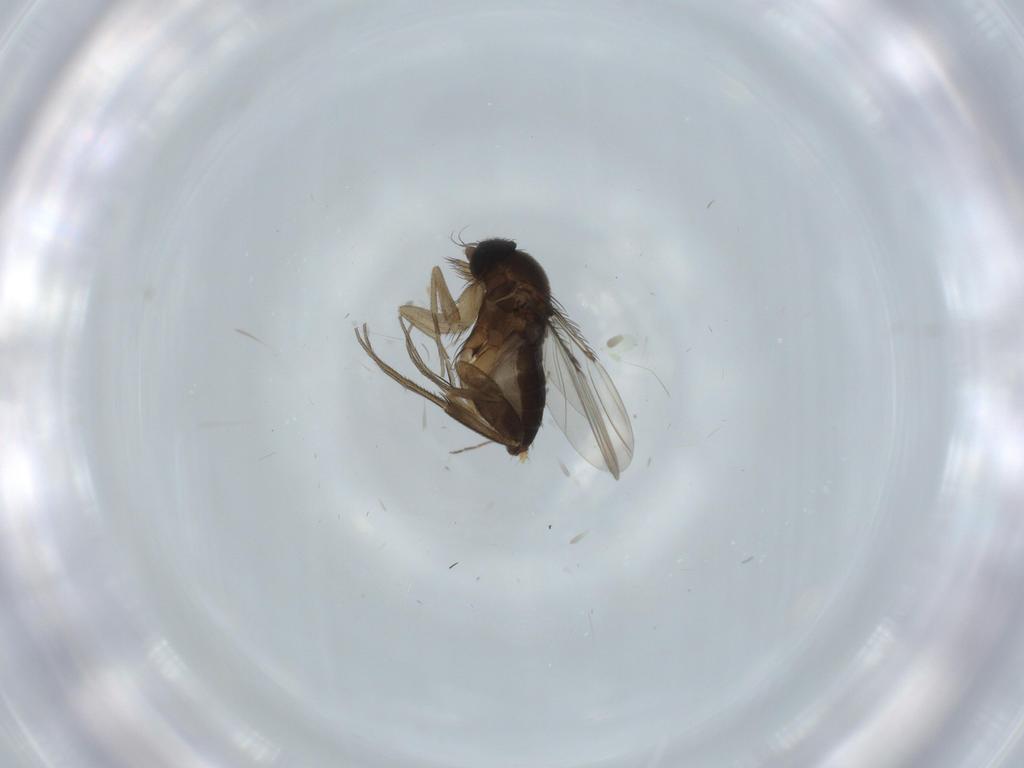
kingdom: Animalia
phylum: Arthropoda
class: Insecta
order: Diptera
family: Phoridae
